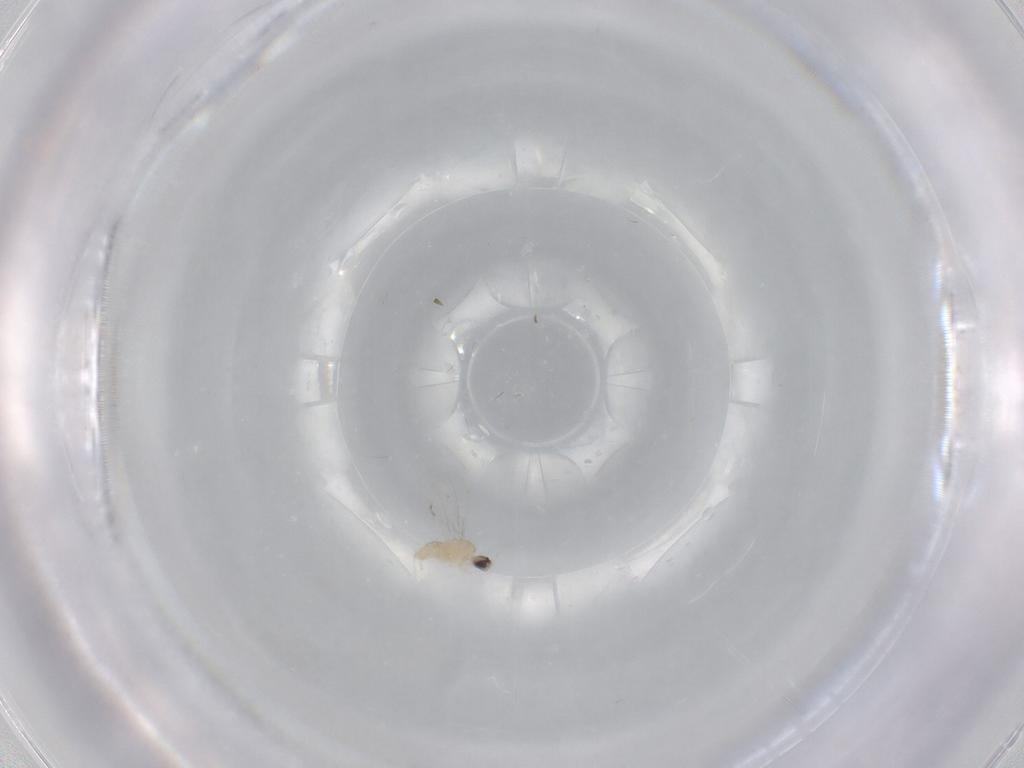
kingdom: Animalia
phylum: Arthropoda
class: Insecta
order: Diptera
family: Cecidomyiidae
